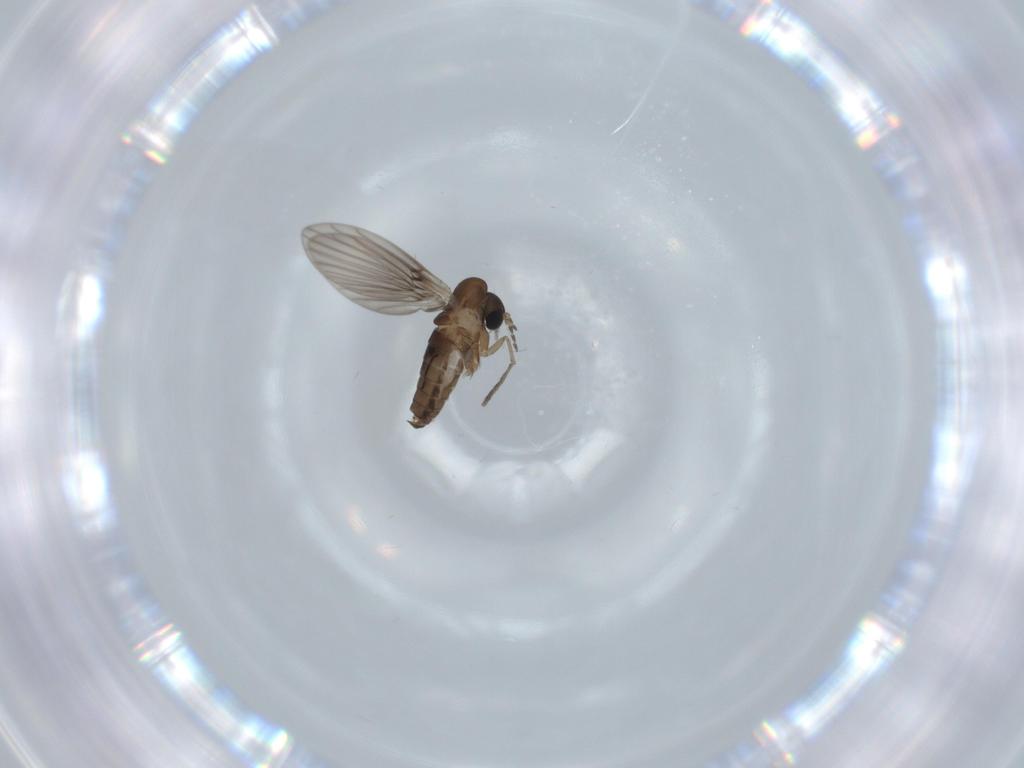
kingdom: Animalia
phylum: Arthropoda
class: Insecta
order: Diptera
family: Psychodidae
